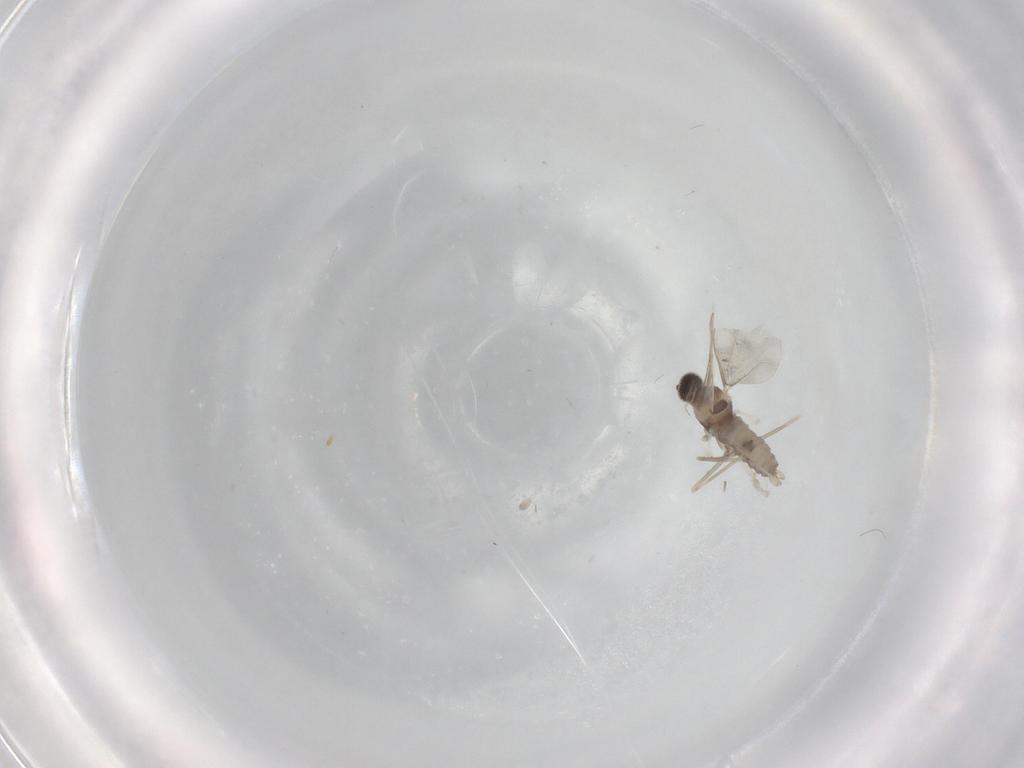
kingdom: Animalia
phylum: Arthropoda
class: Insecta
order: Diptera
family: Cecidomyiidae
